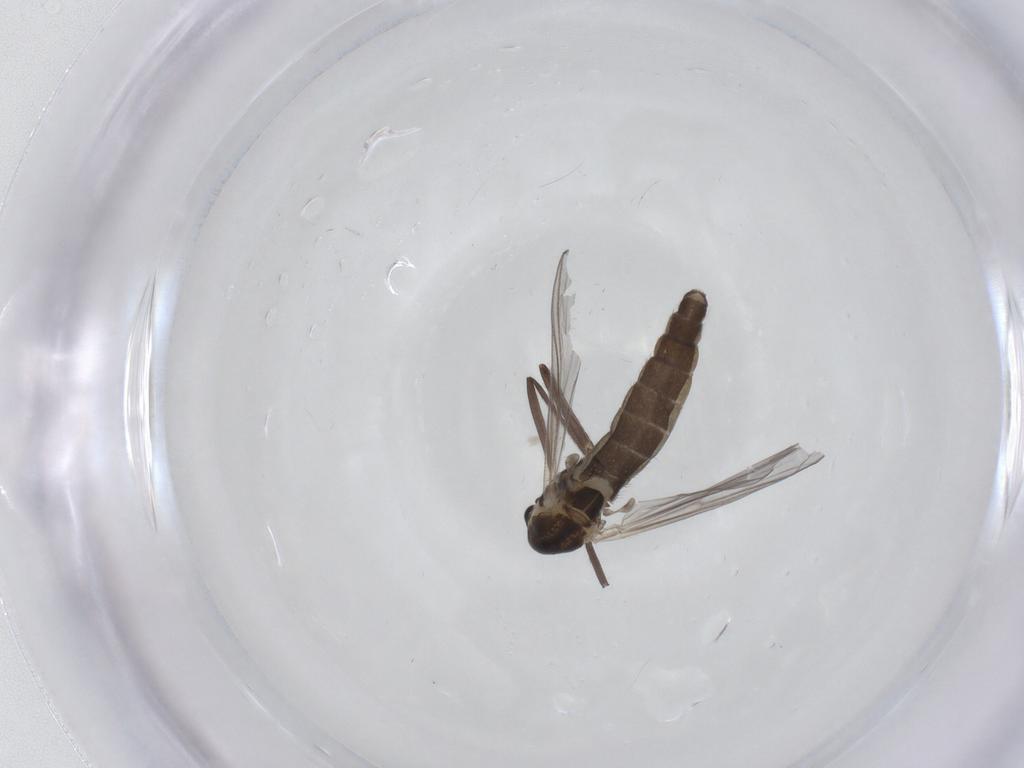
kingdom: Animalia
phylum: Arthropoda
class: Insecta
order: Diptera
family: Chironomidae
